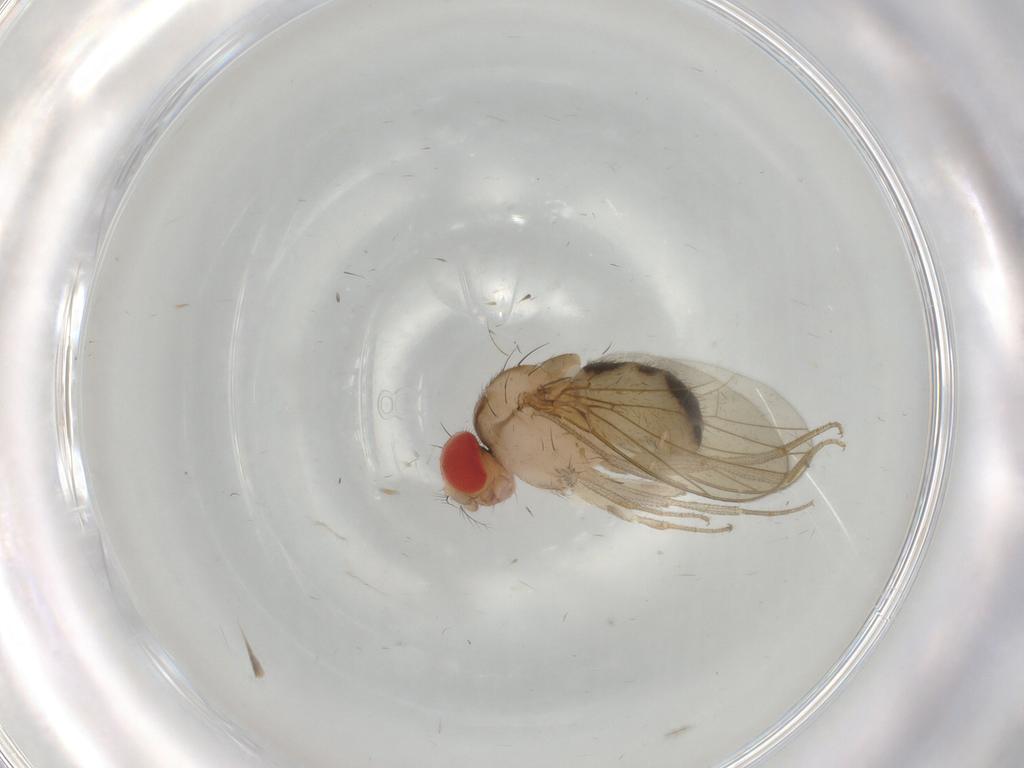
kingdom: Animalia
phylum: Arthropoda
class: Insecta
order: Diptera
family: Drosophilidae
